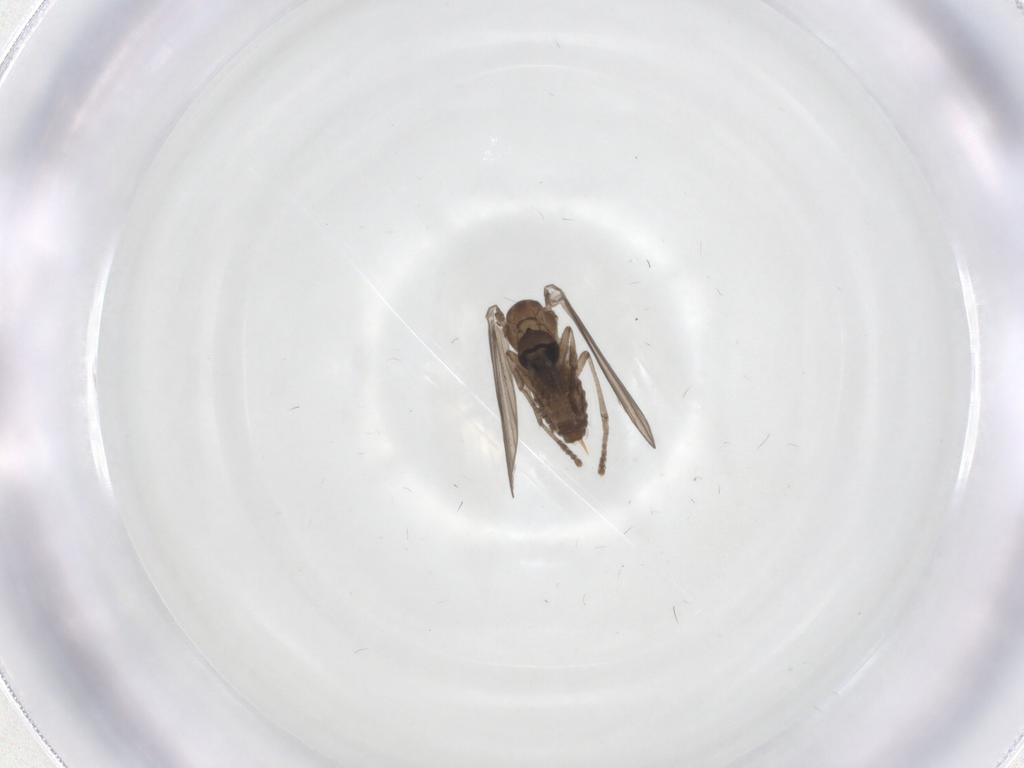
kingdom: Animalia
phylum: Arthropoda
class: Insecta
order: Diptera
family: Psychodidae
